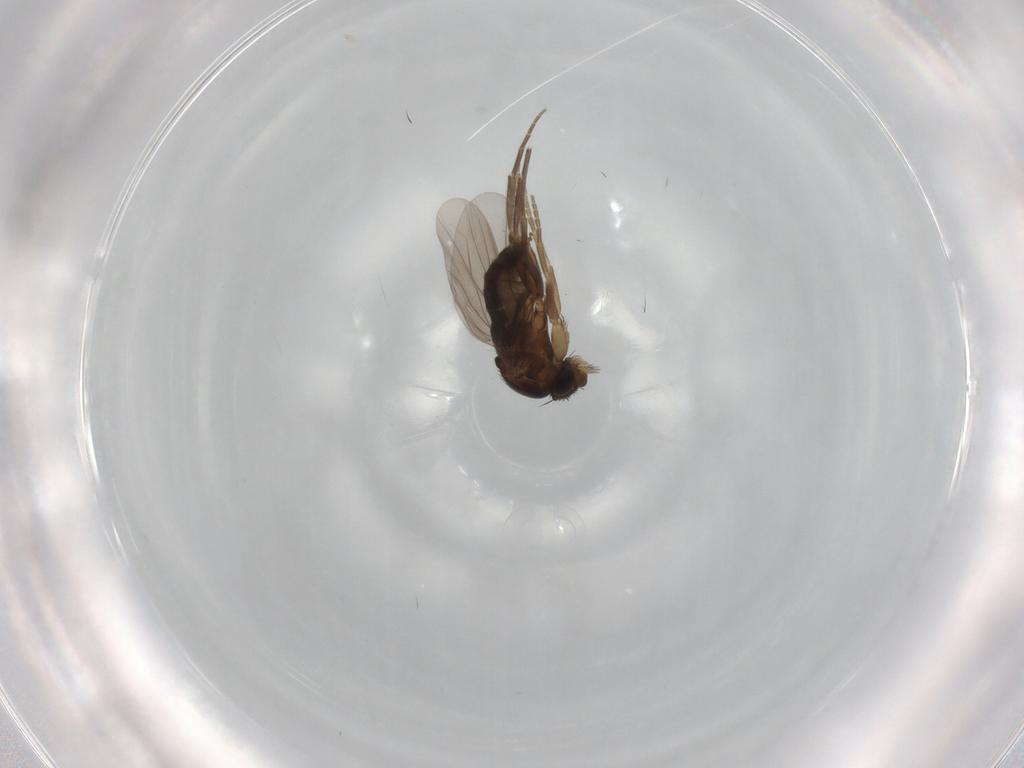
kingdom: Animalia
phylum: Arthropoda
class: Insecta
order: Diptera
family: Phoridae
